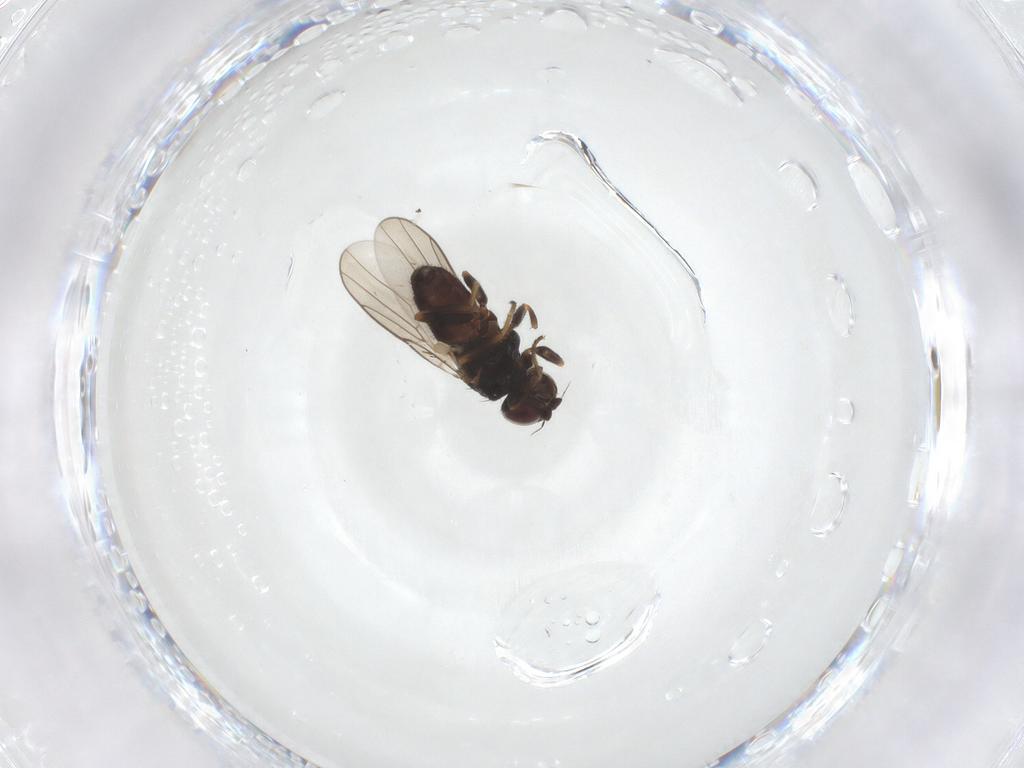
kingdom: Animalia
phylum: Arthropoda
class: Insecta
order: Diptera
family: Chloropidae
